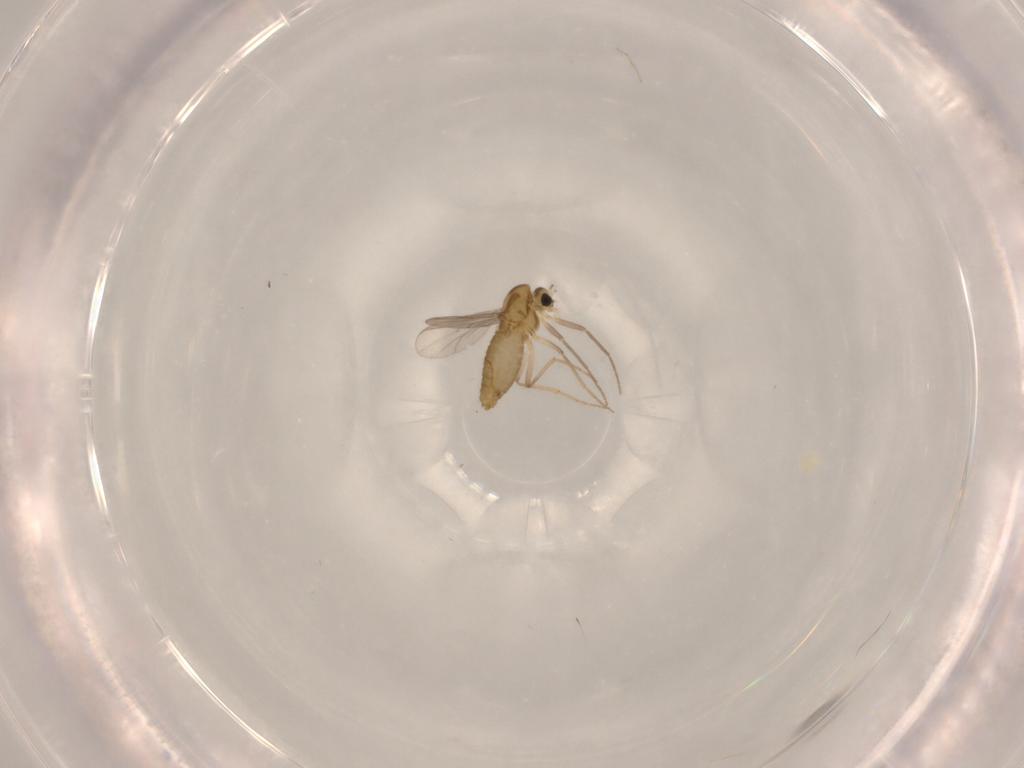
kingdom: Animalia
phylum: Arthropoda
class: Insecta
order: Diptera
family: Chironomidae
